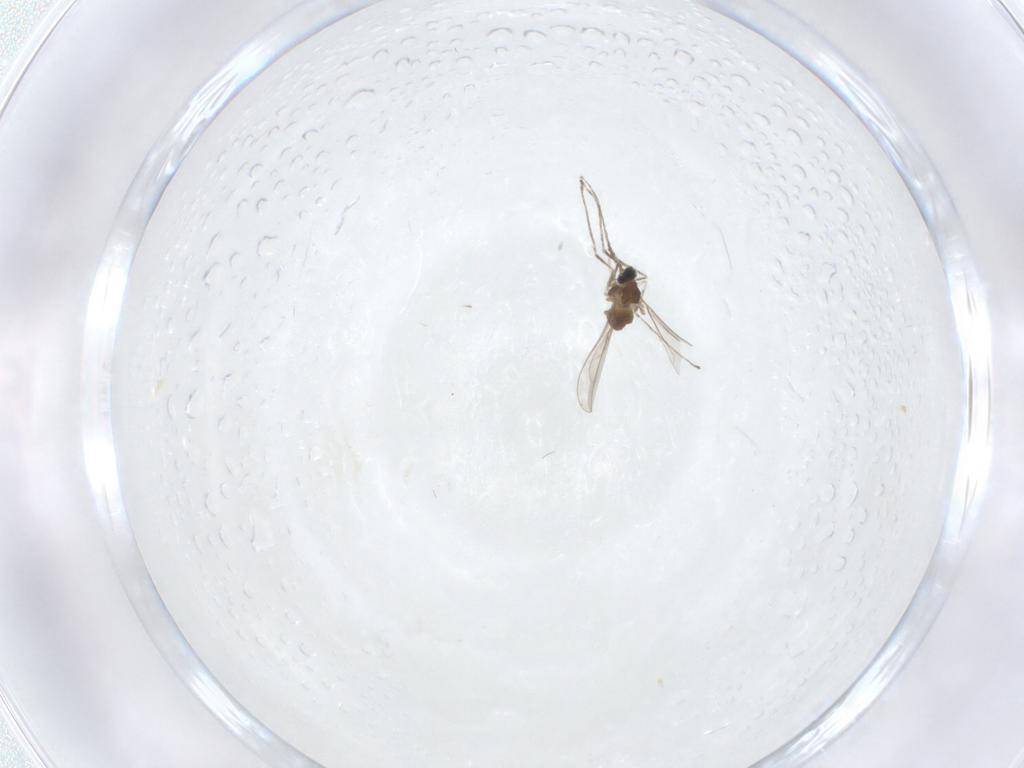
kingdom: Animalia
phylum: Arthropoda
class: Insecta
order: Diptera
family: Cecidomyiidae
